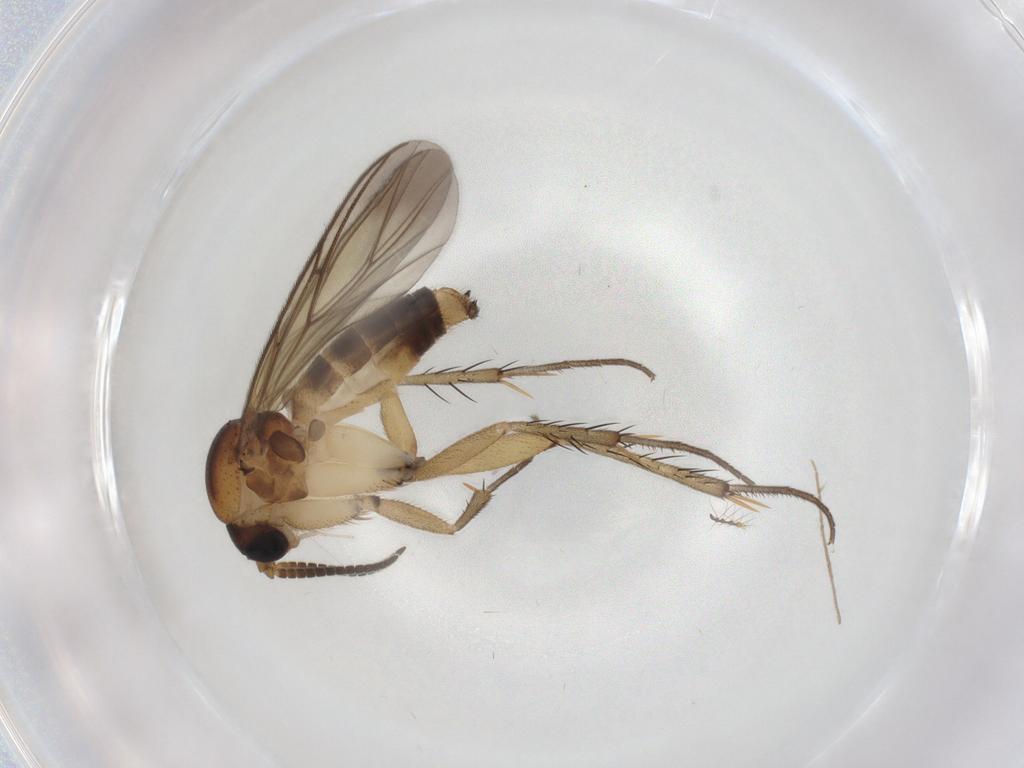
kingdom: Animalia
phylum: Arthropoda
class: Insecta
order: Diptera
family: Mycetophilidae
